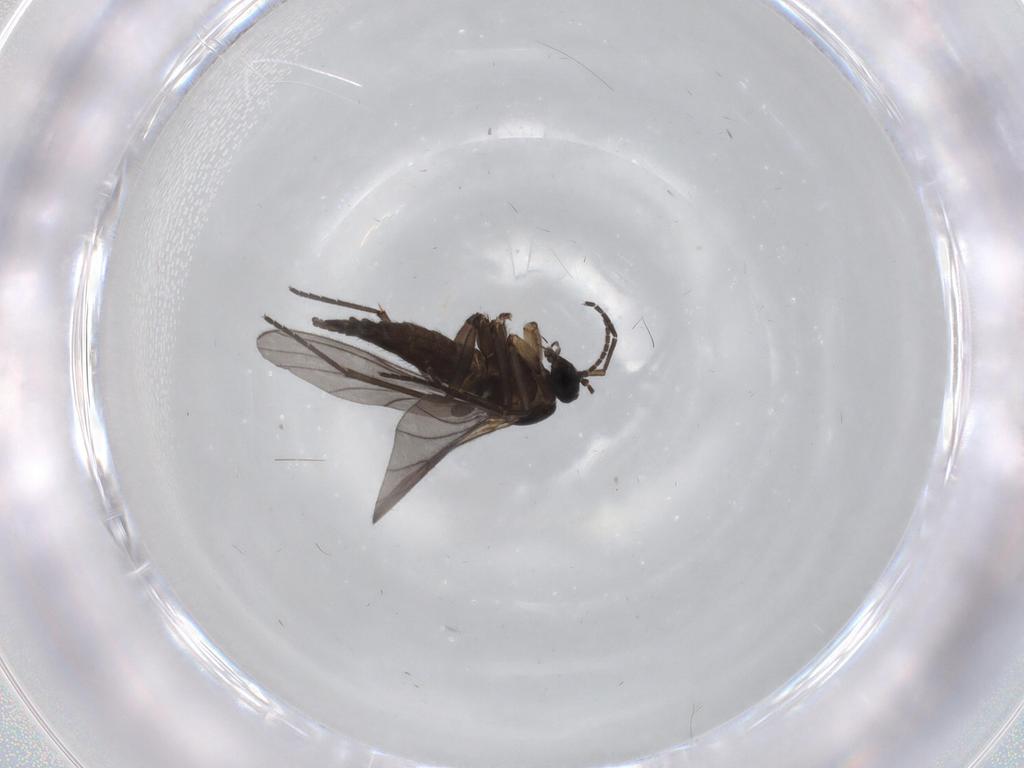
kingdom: Animalia
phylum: Arthropoda
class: Insecta
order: Diptera
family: Sciaridae
